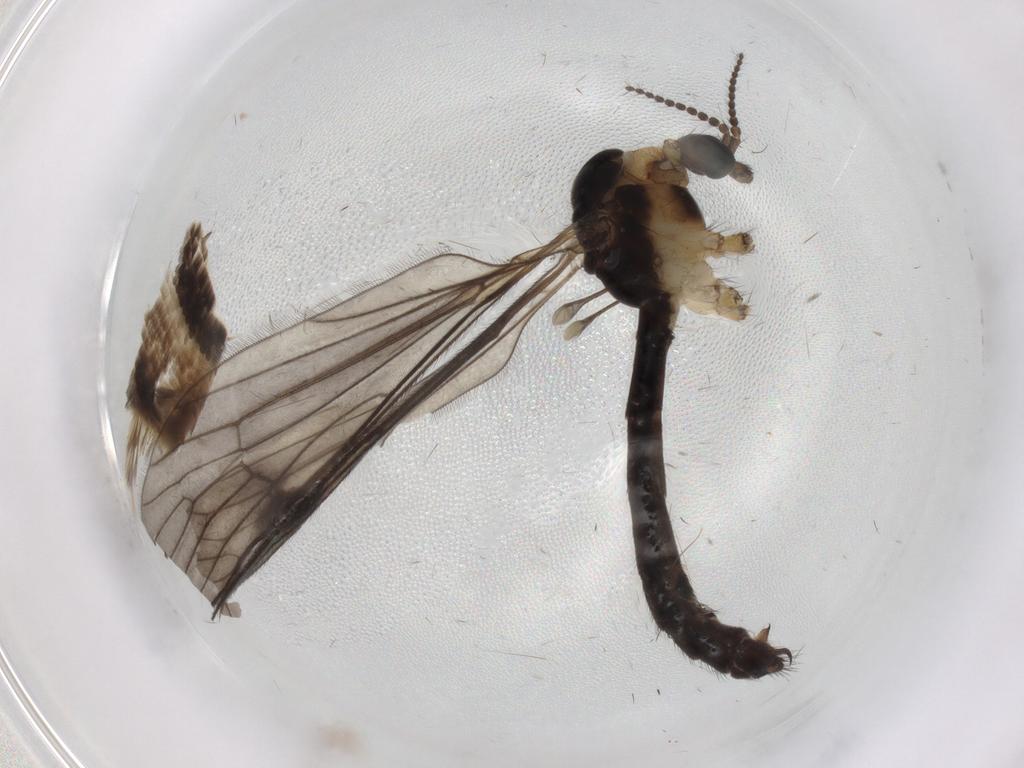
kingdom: Animalia
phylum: Arthropoda
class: Insecta
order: Diptera
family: Limoniidae
